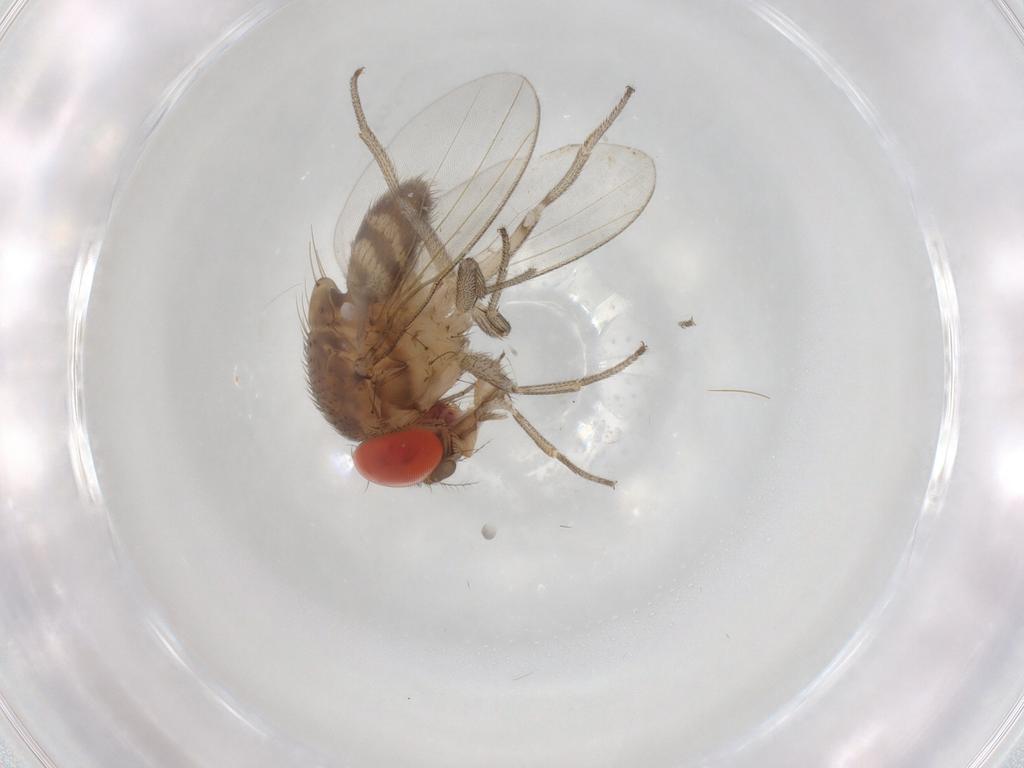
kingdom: Animalia
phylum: Arthropoda
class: Insecta
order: Diptera
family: Drosophilidae
